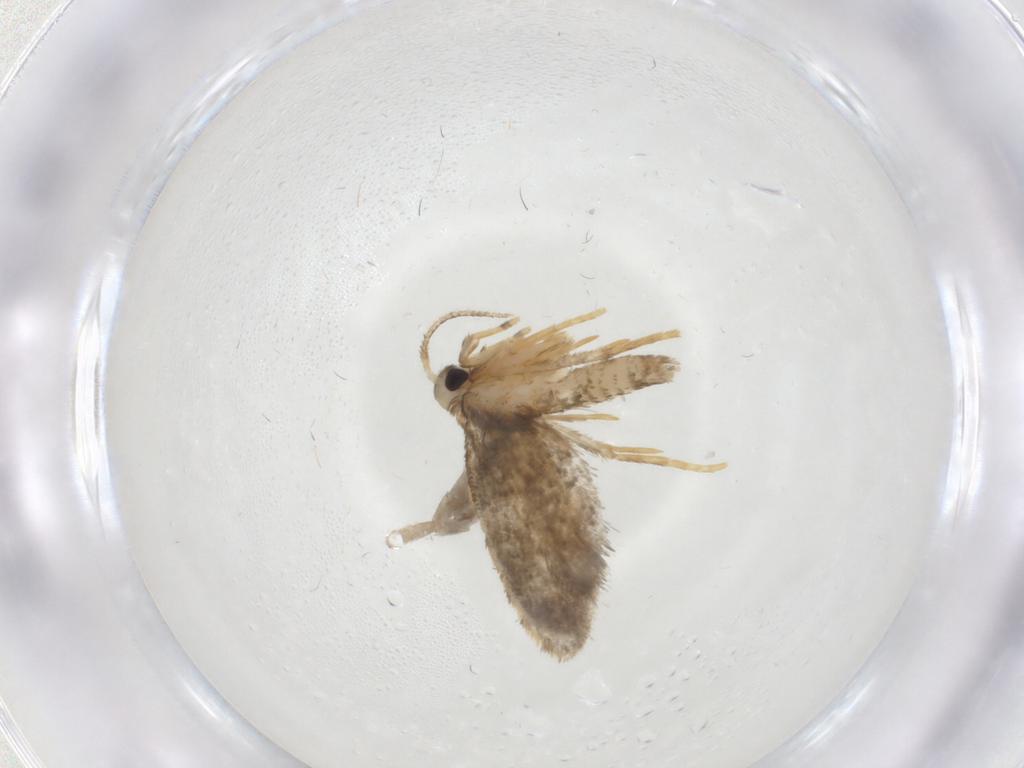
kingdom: Animalia
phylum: Arthropoda
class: Insecta
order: Lepidoptera
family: Psychidae
